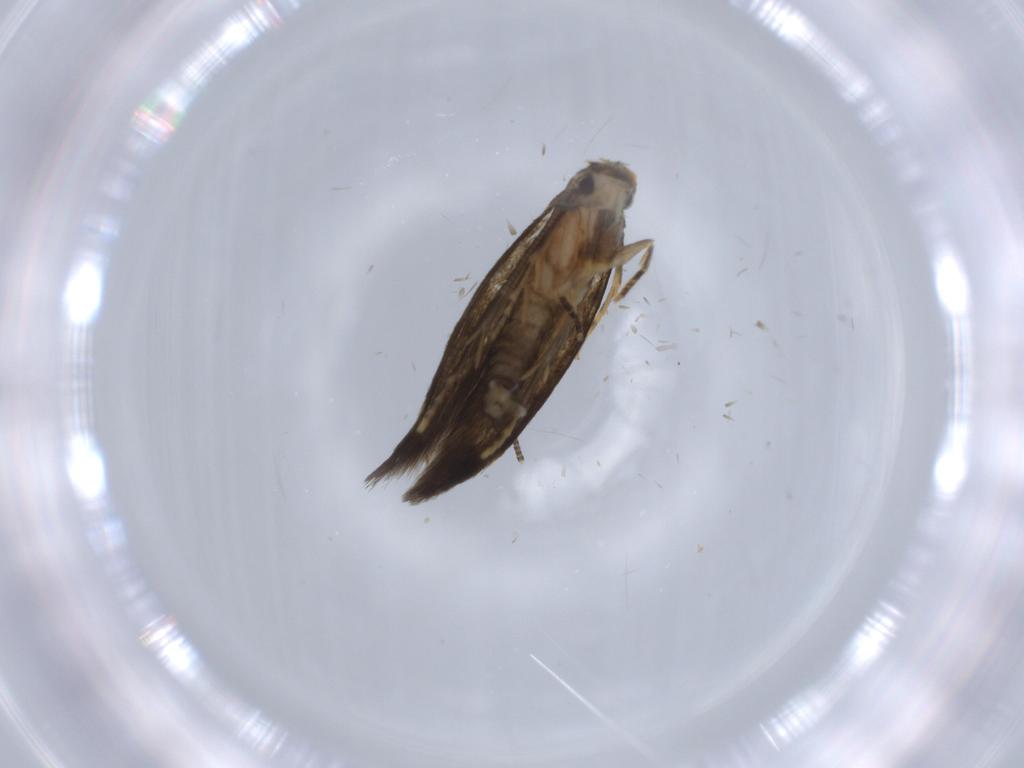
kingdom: Animalia
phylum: Arthropoda
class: Insecta
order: Lepidoptera
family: Tineidae
